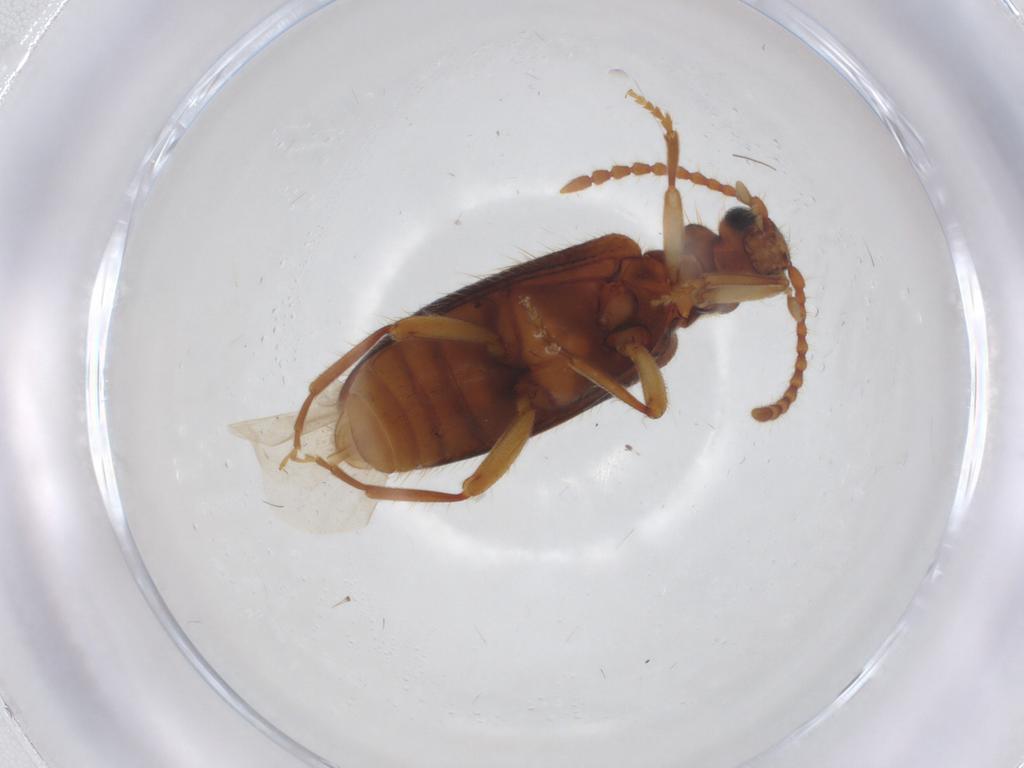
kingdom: Animalia
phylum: Arthropoda
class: Insecta
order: Coleoptera
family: Anthicidae
